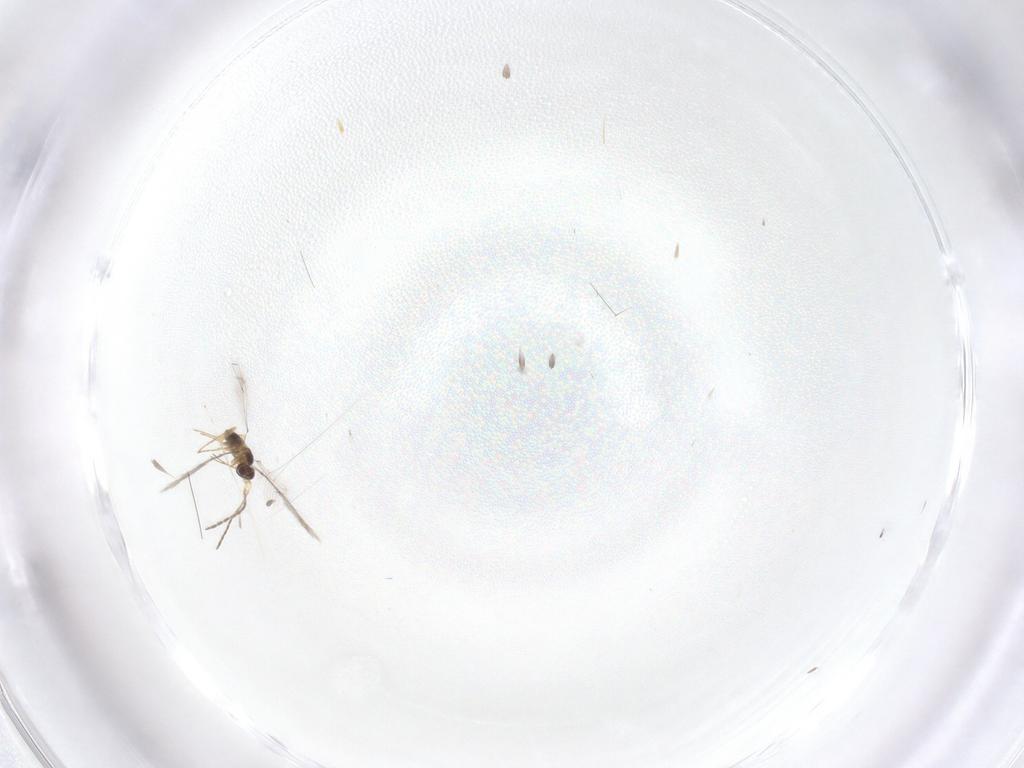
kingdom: Animalia
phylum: Arthropoda
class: Insecta
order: Hymenoptera
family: Mymaridae
